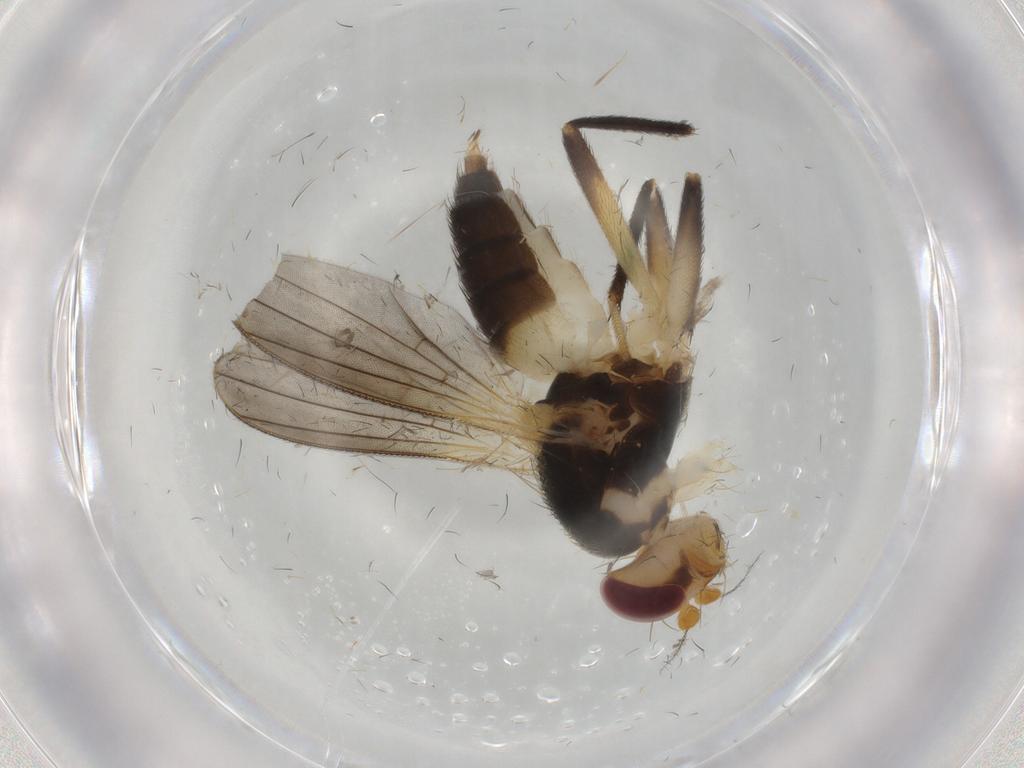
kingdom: Animalia
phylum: Arthropoda
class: Insecta
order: Diptera
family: Clusiidae
